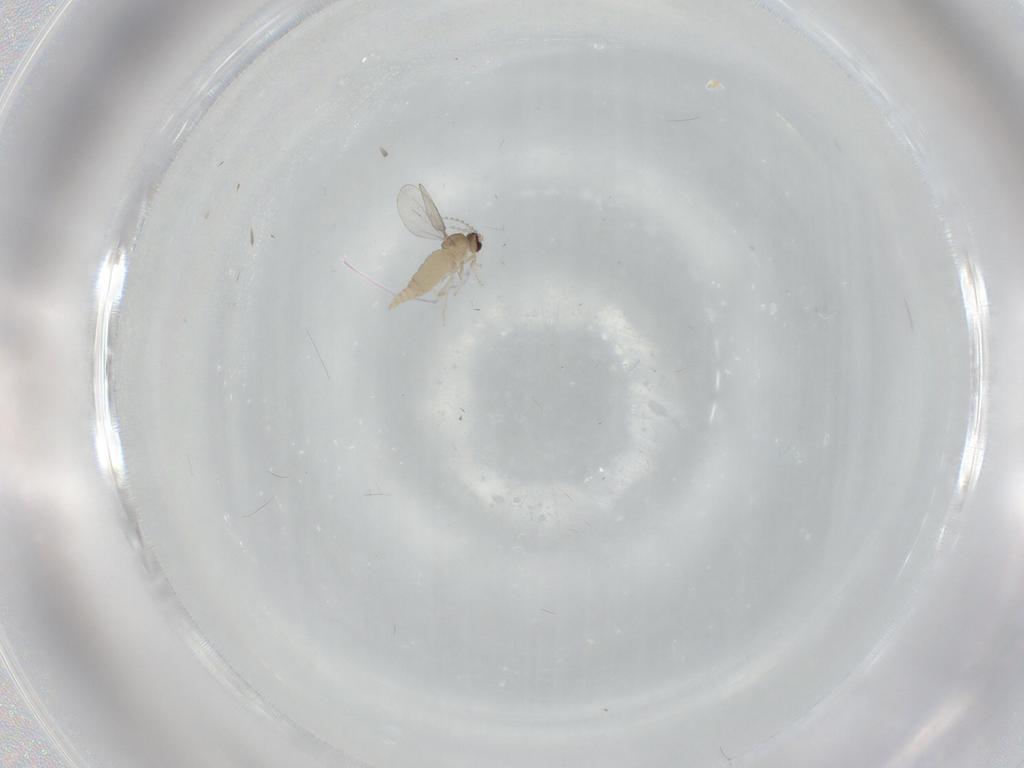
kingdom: Animalia
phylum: Arthropoda
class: Insecta
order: Diptera
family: Cecidomyiidae
